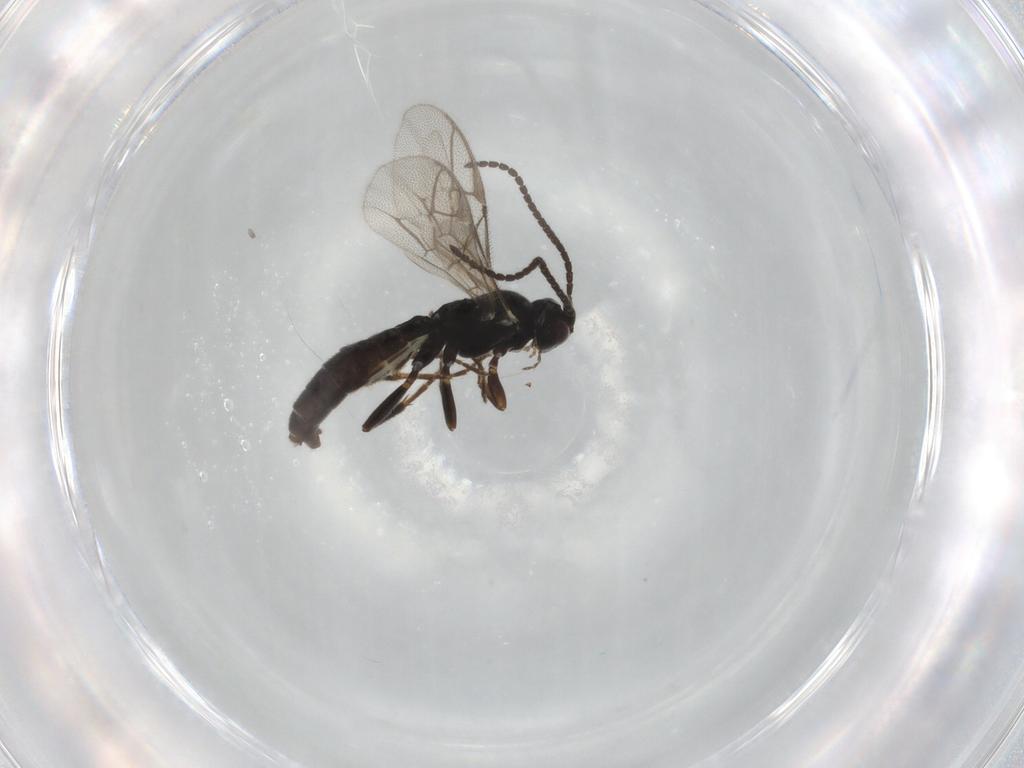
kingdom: Animalia
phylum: Arthropoda
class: Insecta
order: Hymenoptera
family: Ichneumonidae
